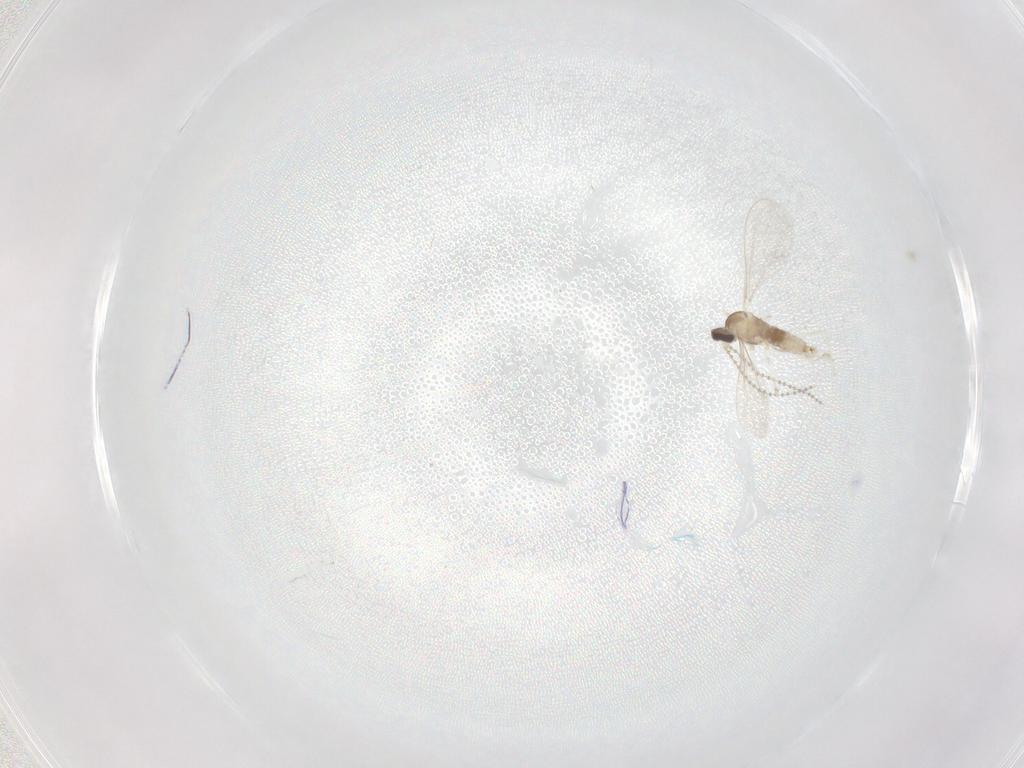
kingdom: Animalia
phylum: Arthropoda
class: Insecta
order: Diptera
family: Cecidomyiidae
